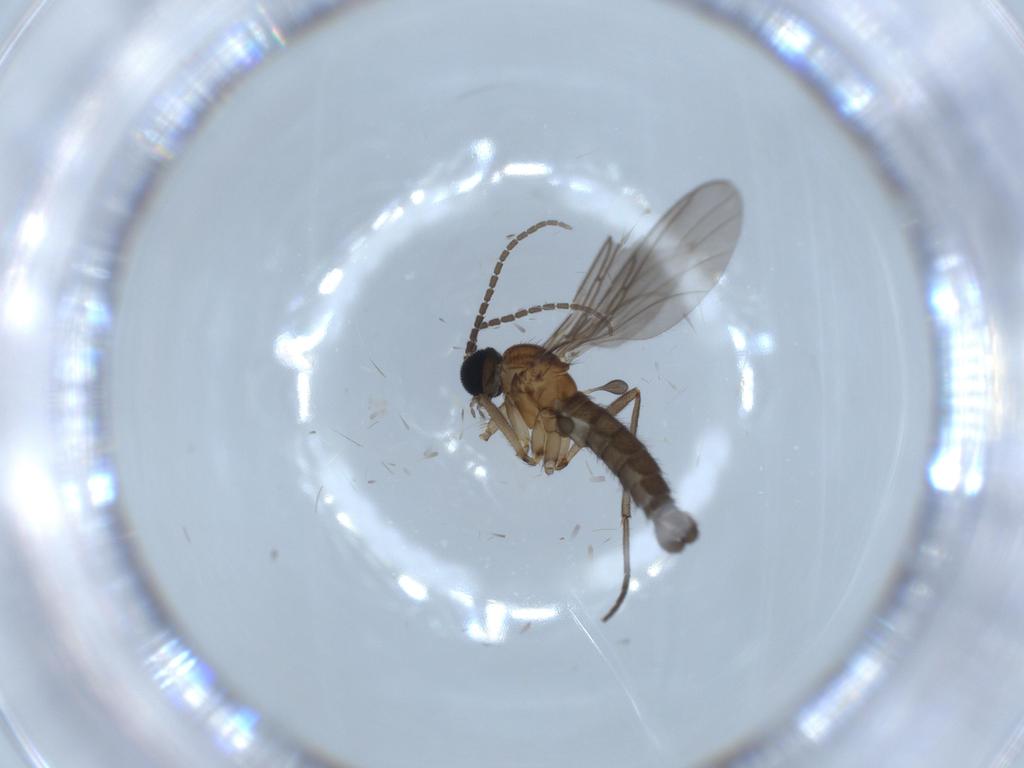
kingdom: Animalia
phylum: Arthropoda
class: Insecta
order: Diptera
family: Sciaridae
